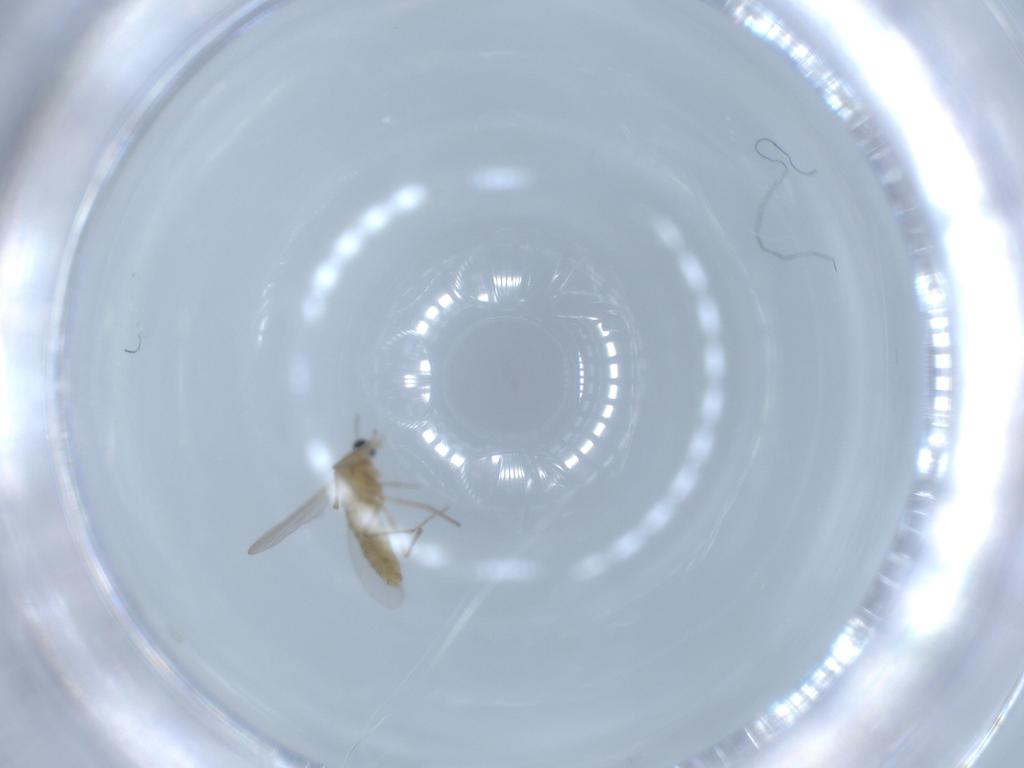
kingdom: Animalia
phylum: Arthropoda
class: Insecta
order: Diptera
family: Chironomidae
